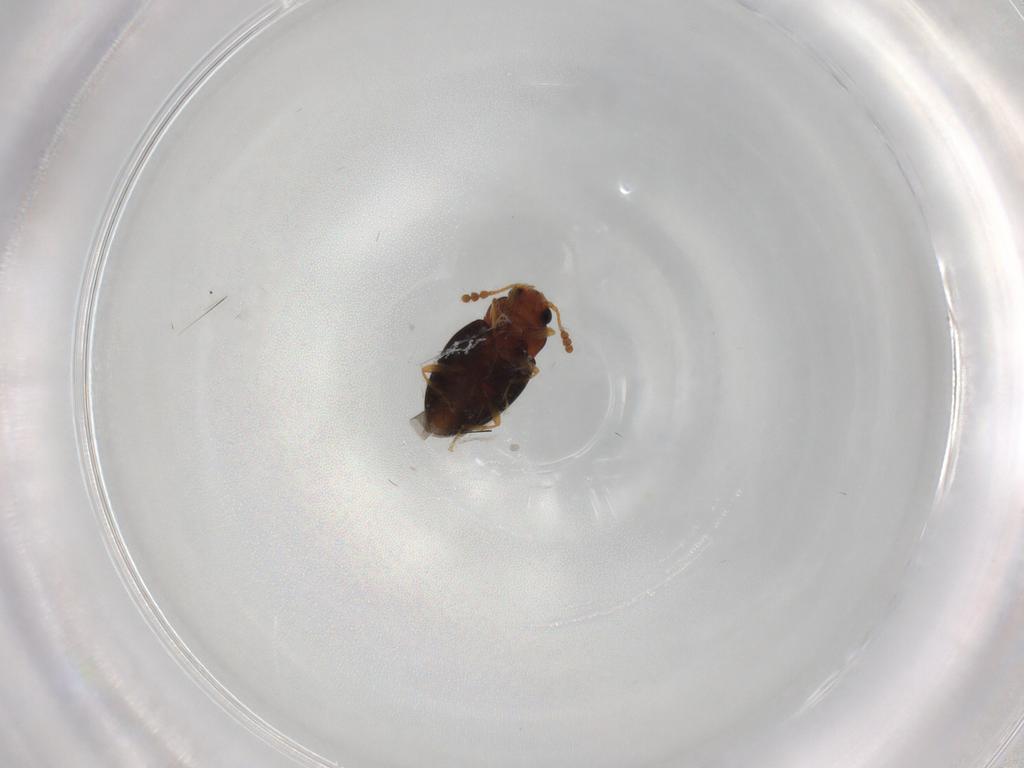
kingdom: Animalia
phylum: Arthropoda
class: Insecta
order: Coleoptera
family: Erotylidae
